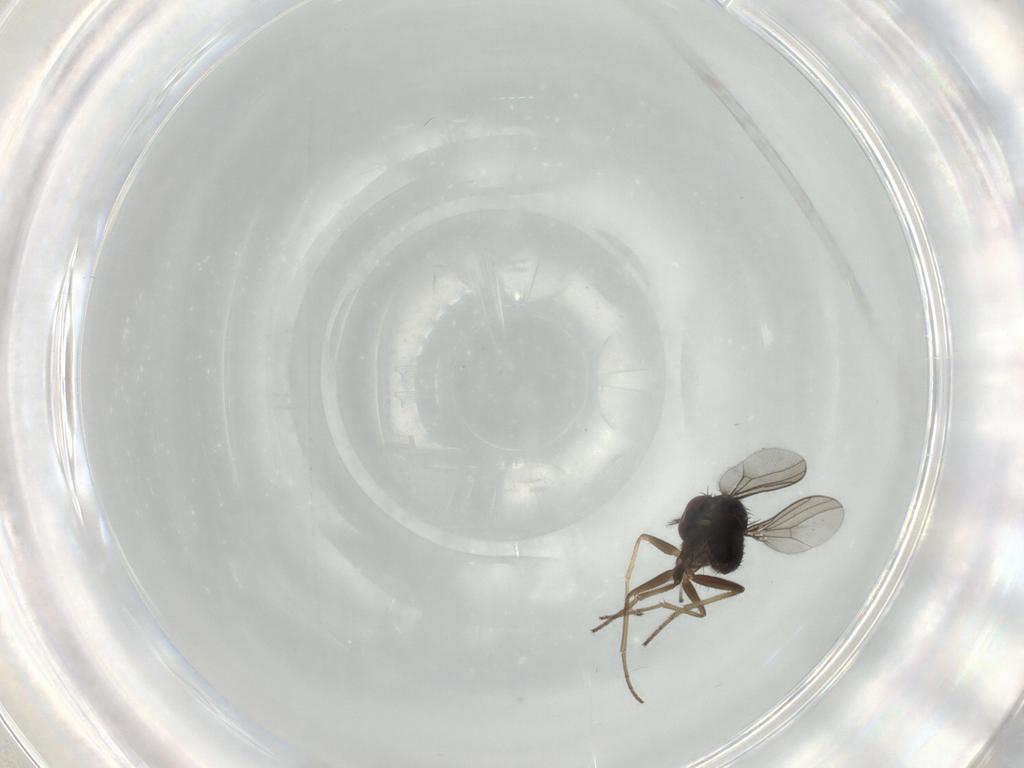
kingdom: Animalia
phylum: Arthropoda
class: Insecta
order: Diptera
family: Dolichopodidae
